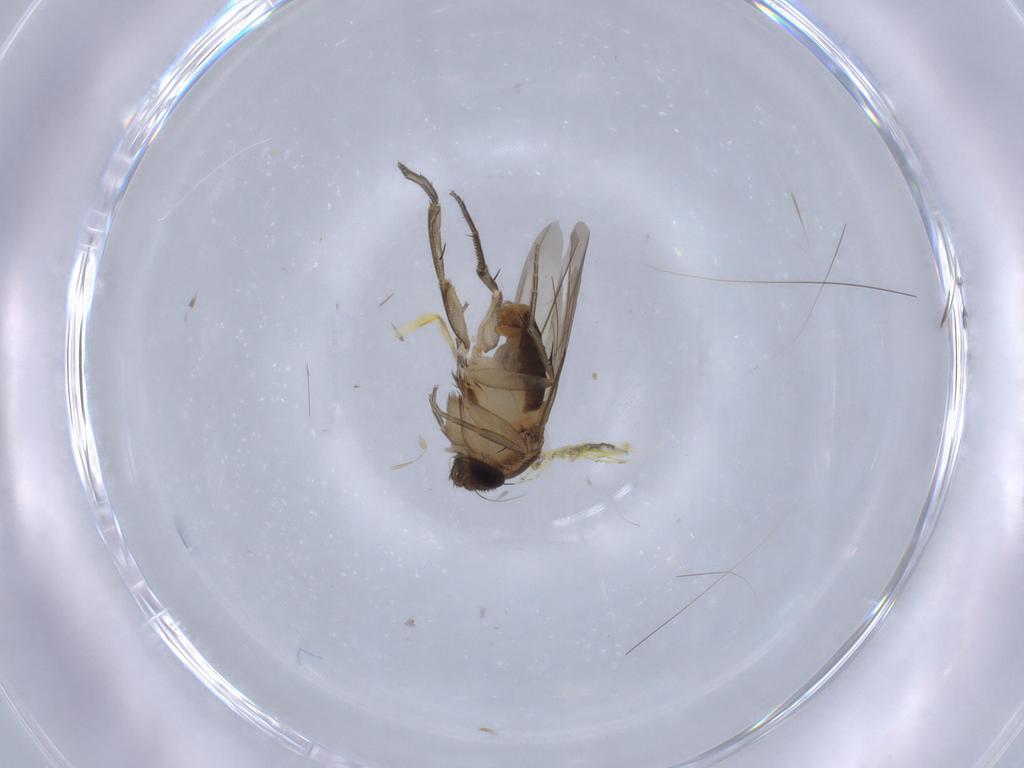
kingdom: Animalia
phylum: Arthropoda
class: Insecta
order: Diptera
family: Phoridae
